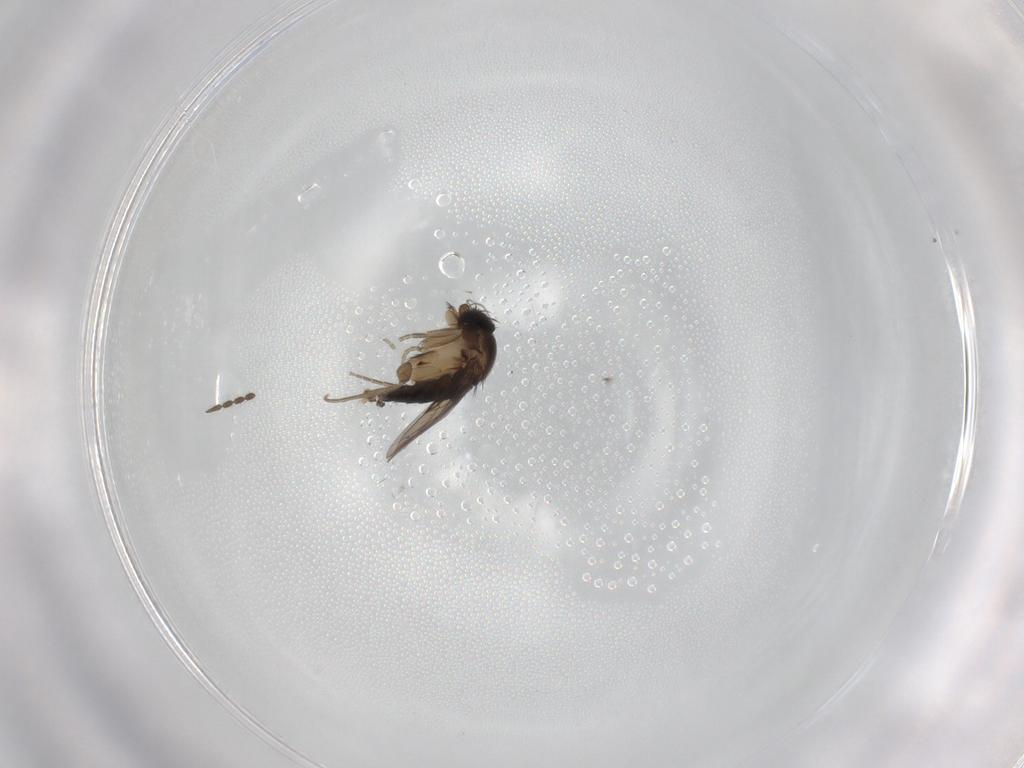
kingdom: Animalia
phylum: Arthropoda
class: Insecta
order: Diptera
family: Phoridae
